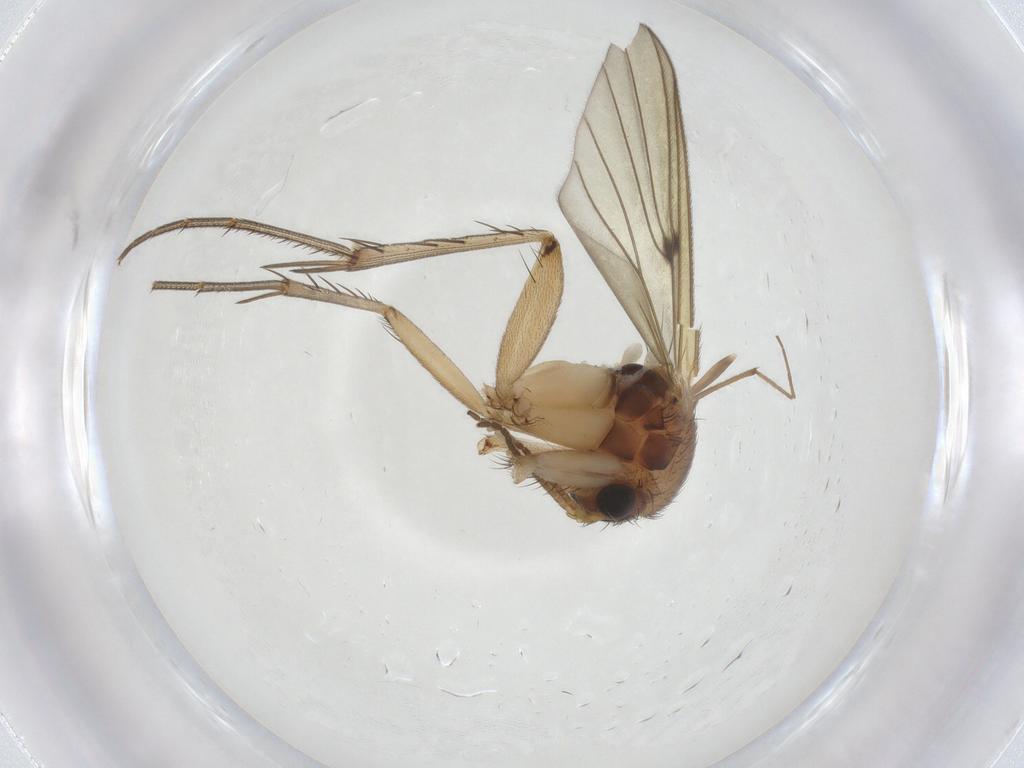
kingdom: Animalia
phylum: Arthropoda
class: Insecta
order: Diptera
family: Mycetophilidae
